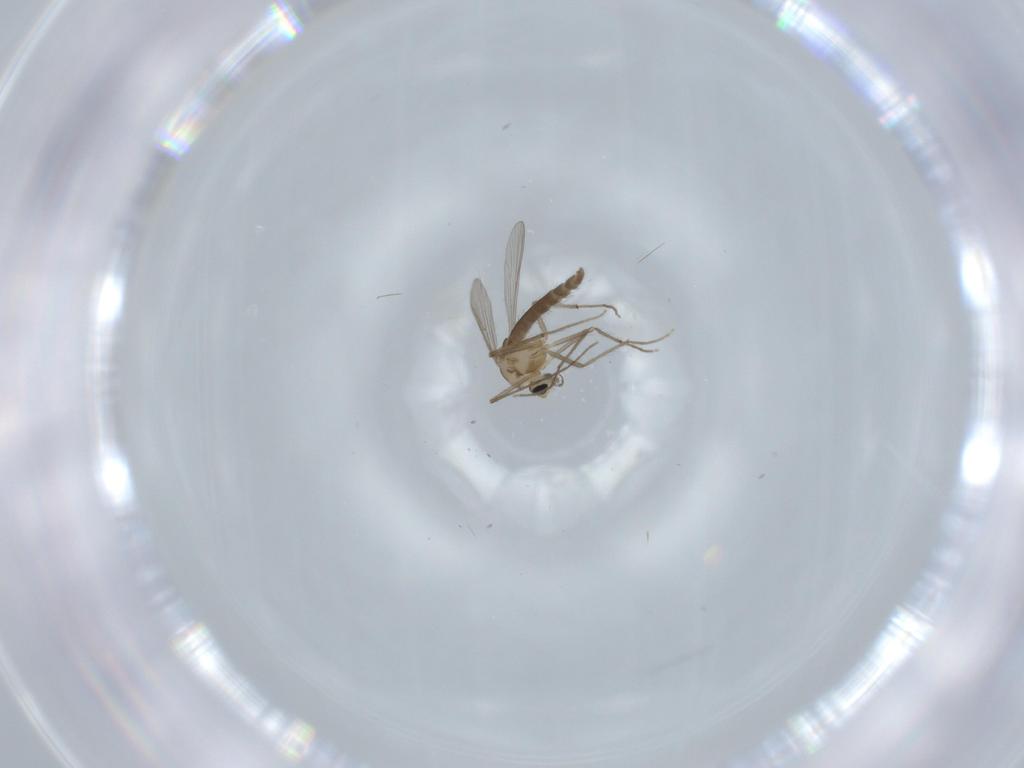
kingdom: Animalia
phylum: Arthropoda
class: Insecta
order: Diptera
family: Chironomidae
